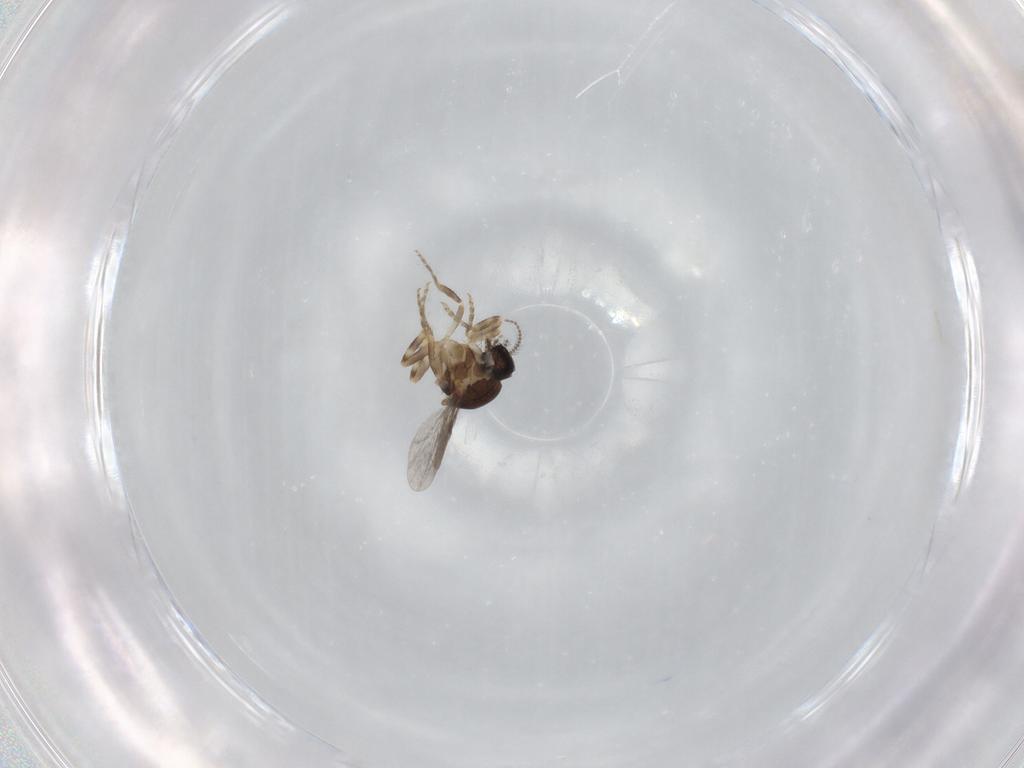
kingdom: Animalia
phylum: Arthropoda
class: Insecta
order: Diptera
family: Ceratopogonidae
